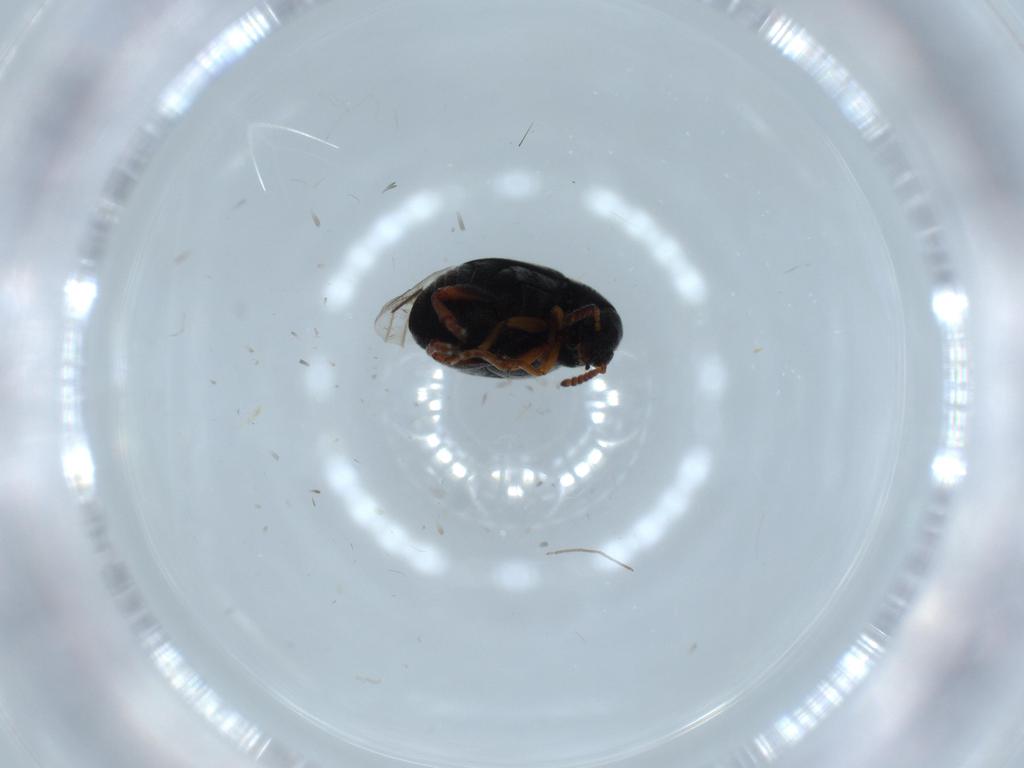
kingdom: Animalia
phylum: Arthropoda
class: Insecta
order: Coleoptera
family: Chrysomelidae
